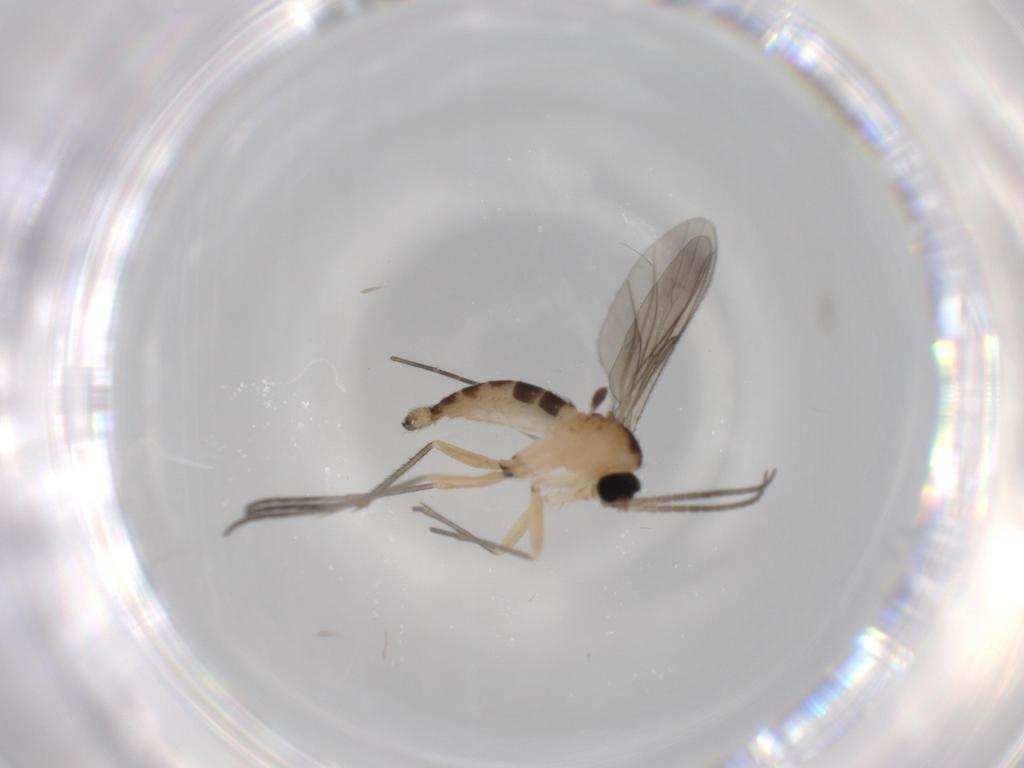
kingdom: Animalia
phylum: Arthropoda
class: Insecta
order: Diptera
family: Sciaridae
